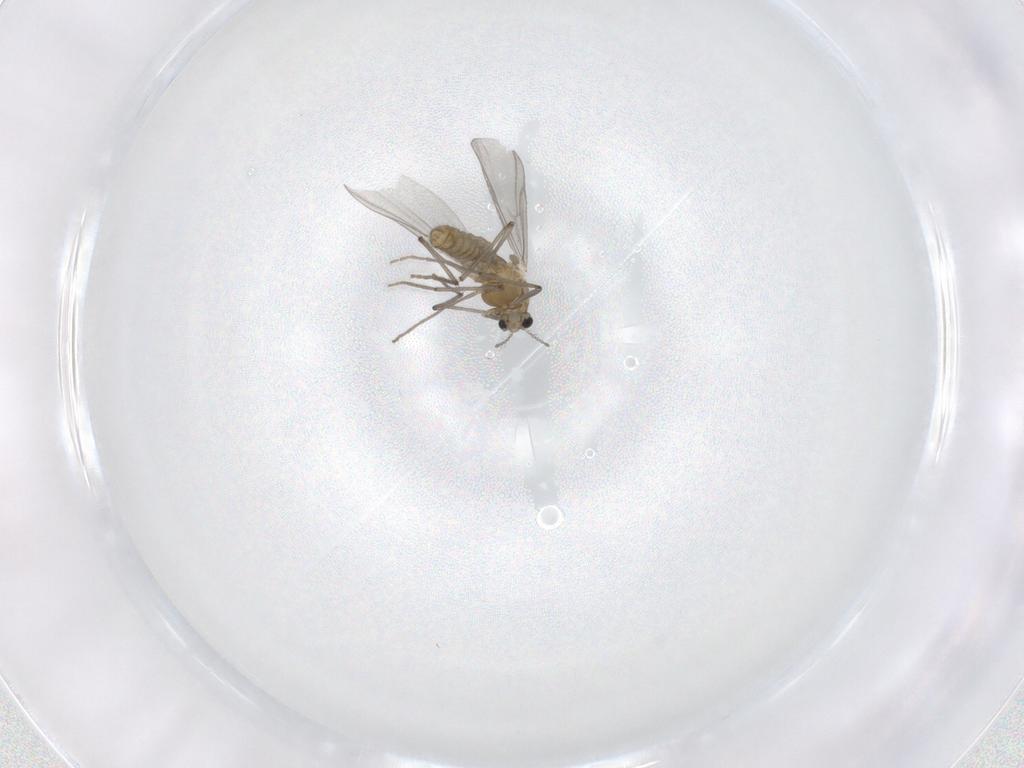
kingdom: Animalia
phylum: Arthropoda
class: Insecta
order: Diptera
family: Chironomidae
